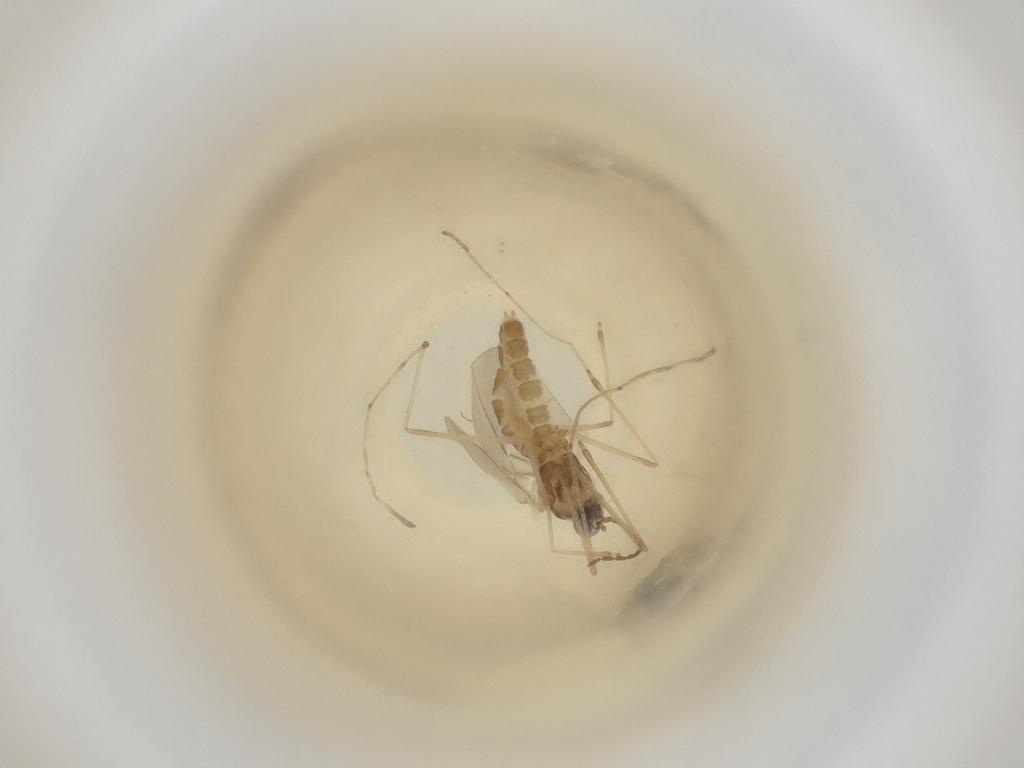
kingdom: Animalia
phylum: Arthropoda
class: Insecta
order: Diptera
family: Cecidomyiidae
